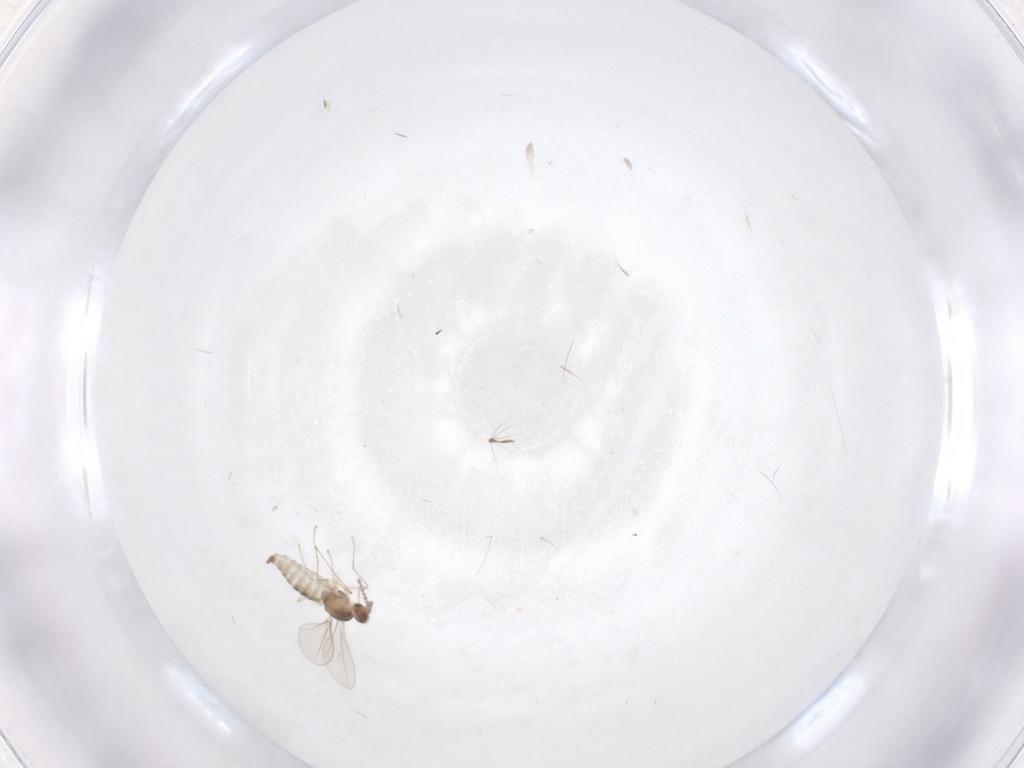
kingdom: Animalia
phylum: Arthropoda
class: Insecta
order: Diptera
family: Cecidomyiidae
